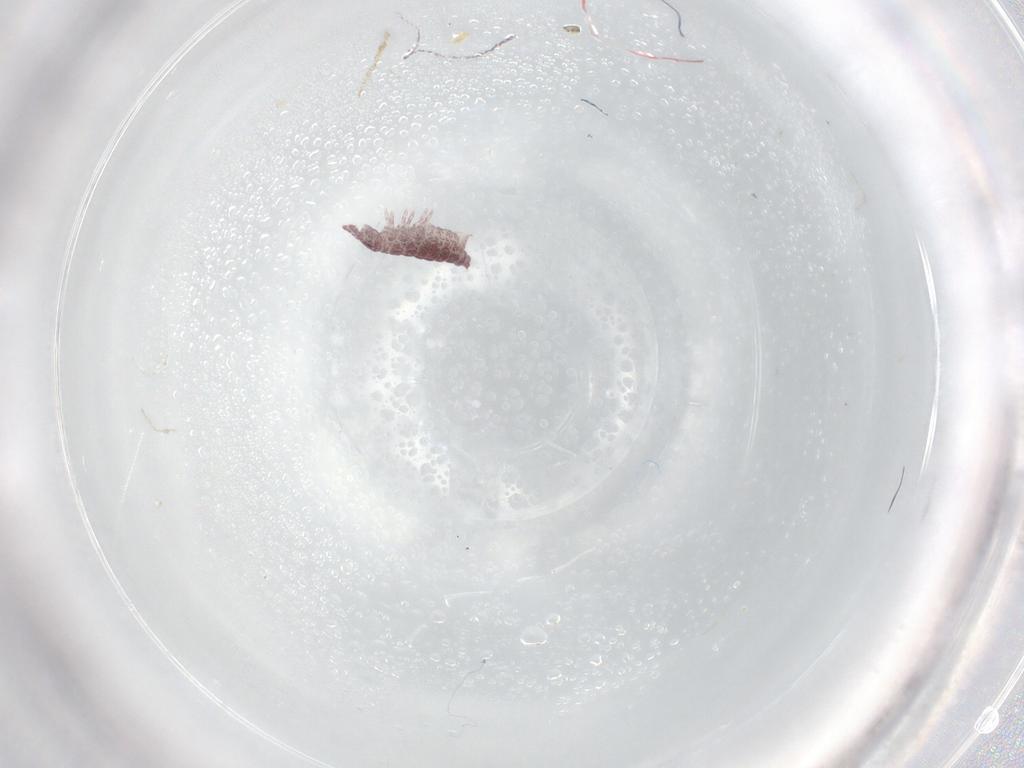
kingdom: Animalia
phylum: Arthropoda
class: Collembola
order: Poduromorpha
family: Hypogastruridae
